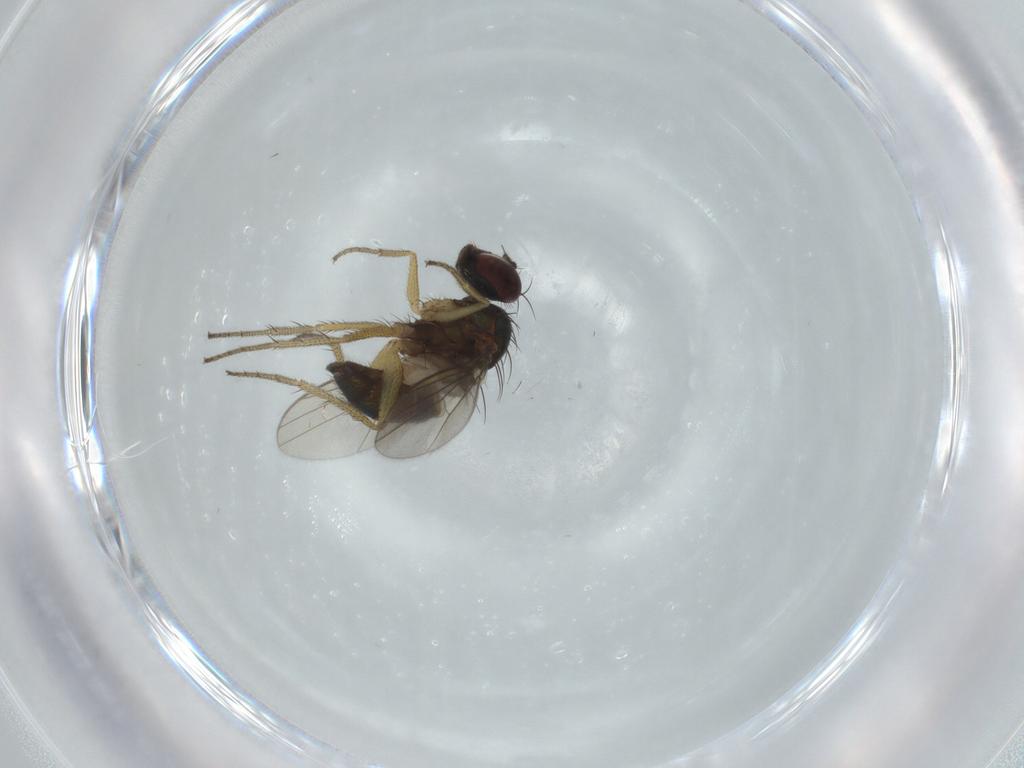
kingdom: Animalia
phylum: Arthropoda
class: Insecta
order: Diptera
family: Dolichopodidae
